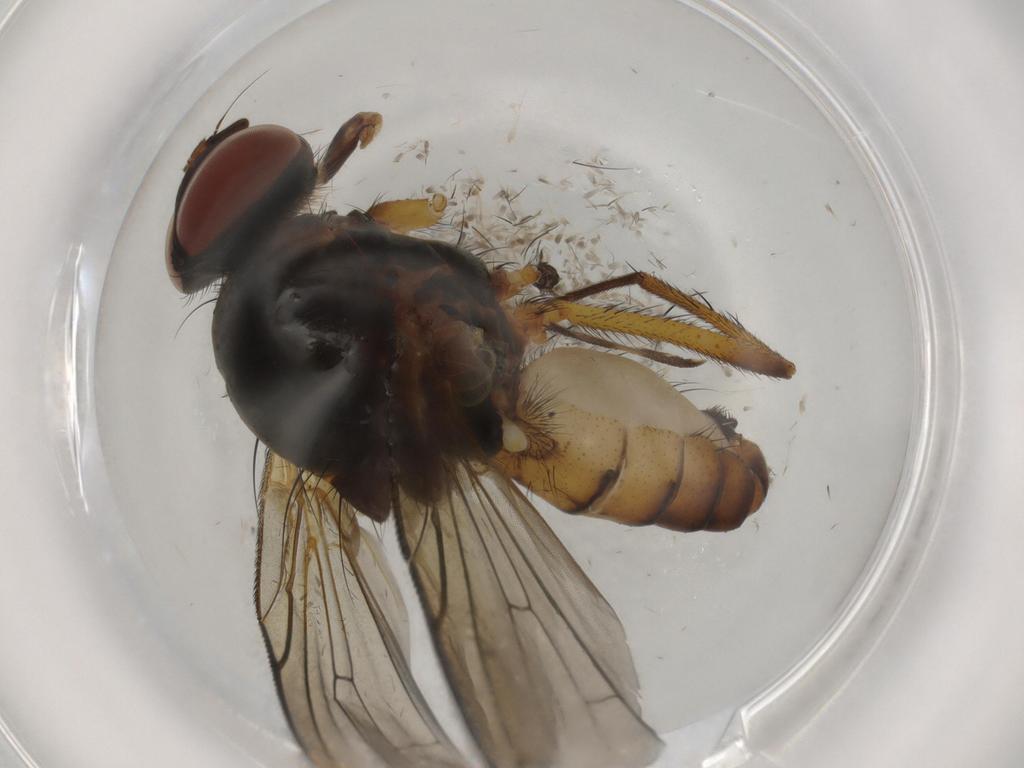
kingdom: Animalia
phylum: Arthropoda
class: Insecta
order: Diptera
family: Anthomyiidae
